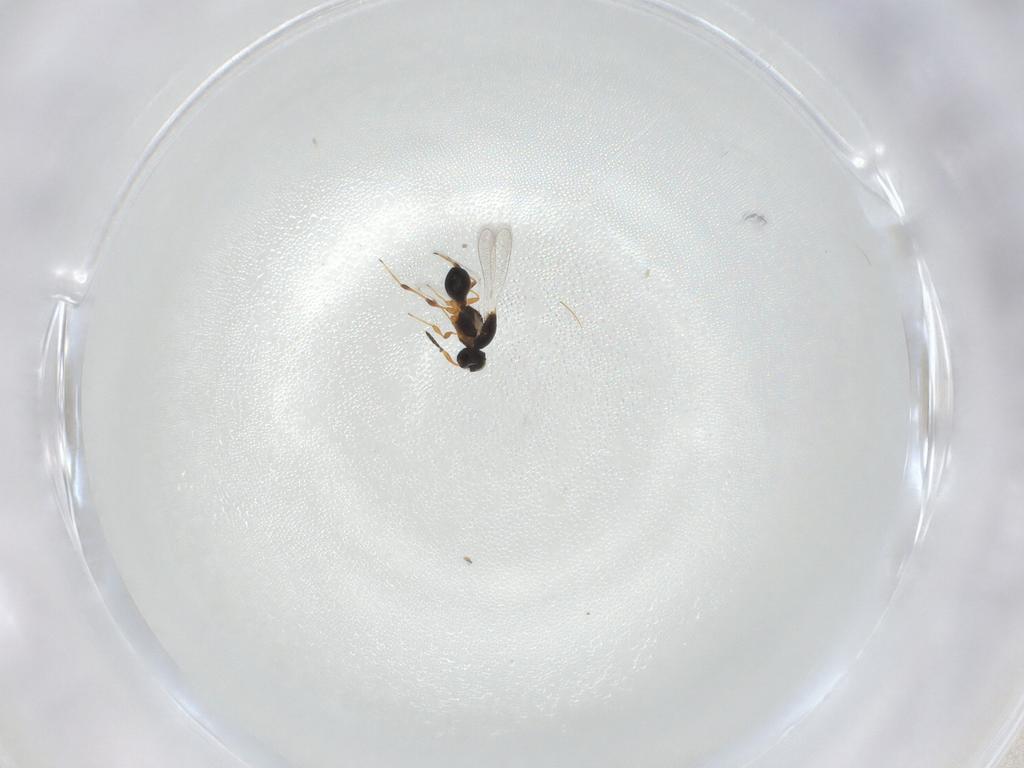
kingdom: Animalia
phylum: Arthropoda
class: Insecta
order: Hymenoptera
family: Platygastridae
